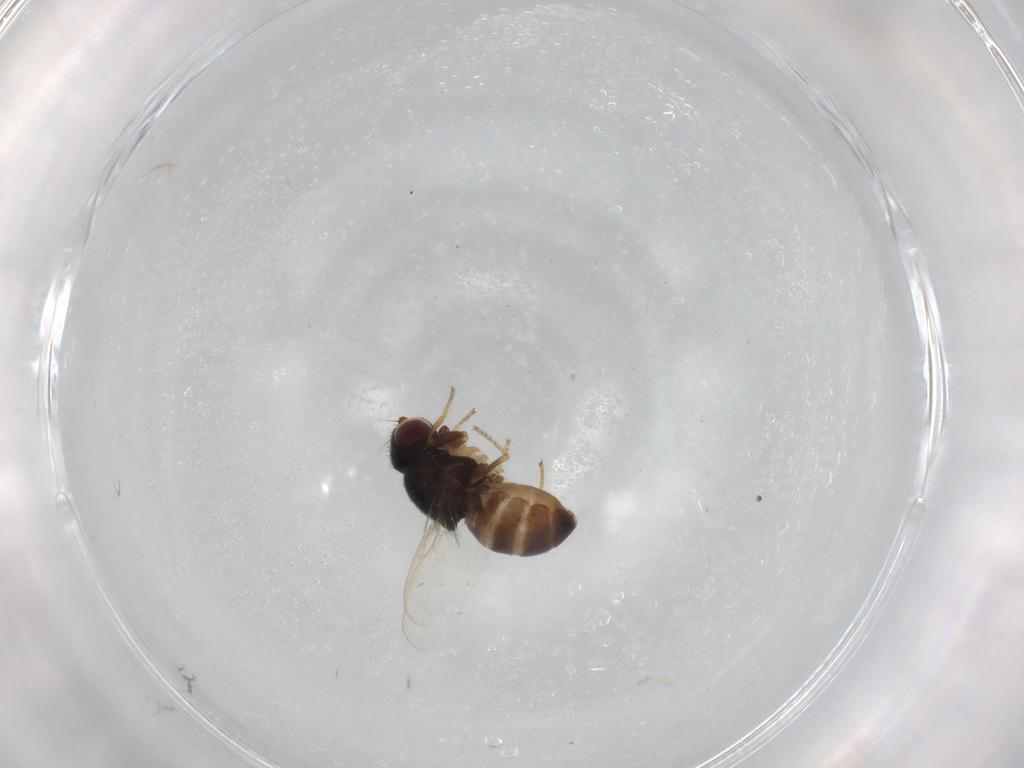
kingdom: Animalia
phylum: Arthropoda
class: Insecta
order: Diptera
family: Chloropidae
